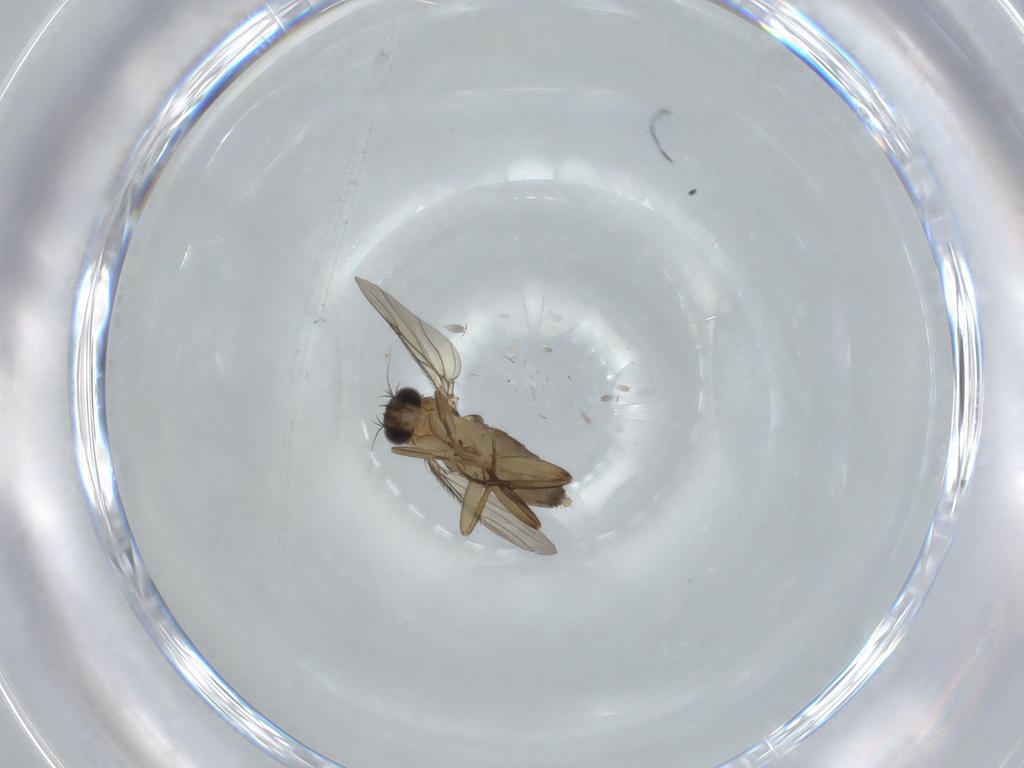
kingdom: Animalia
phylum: Arthropoda
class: Insecta
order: Diptera
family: Phoridae
